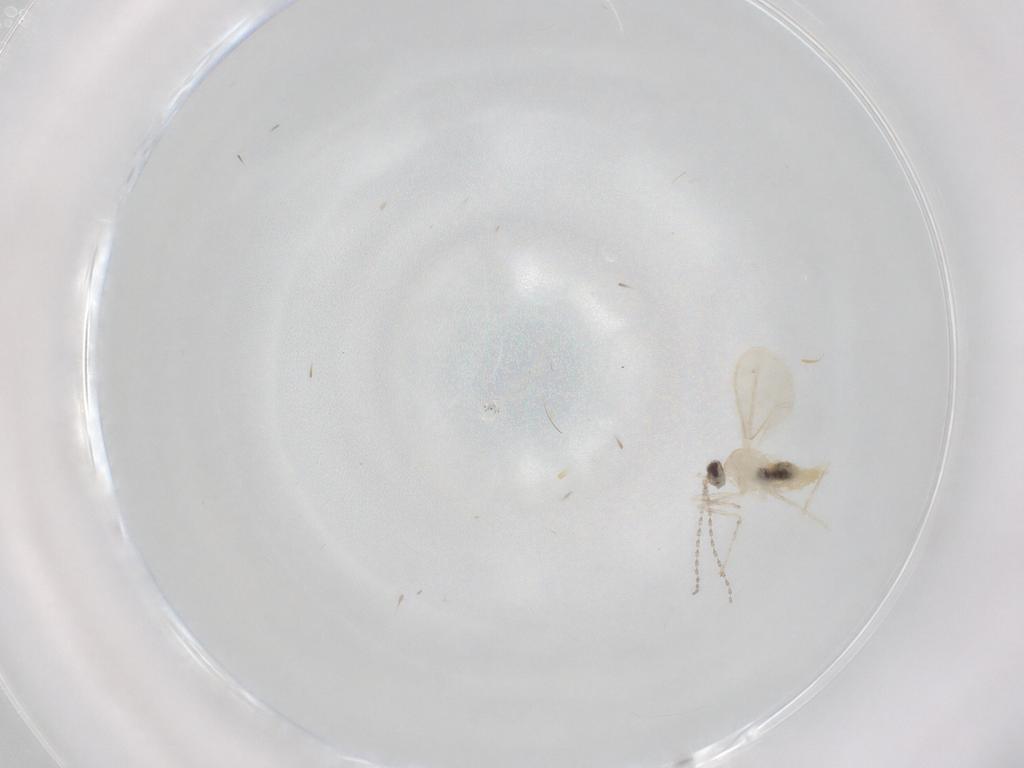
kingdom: Animalia
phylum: Arthropoda
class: Insecta
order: Diptera
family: Cecidomyiidae
